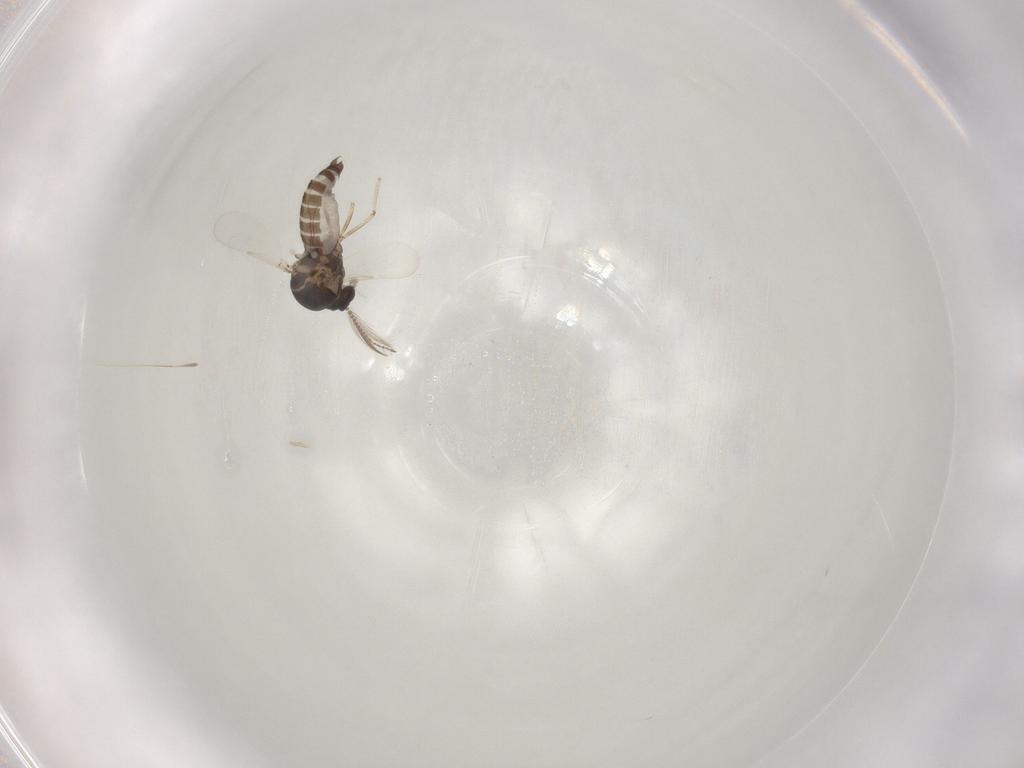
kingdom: Animalia
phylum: Arthropoda
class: Insecta
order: Diptera
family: Ceratopogonidae
